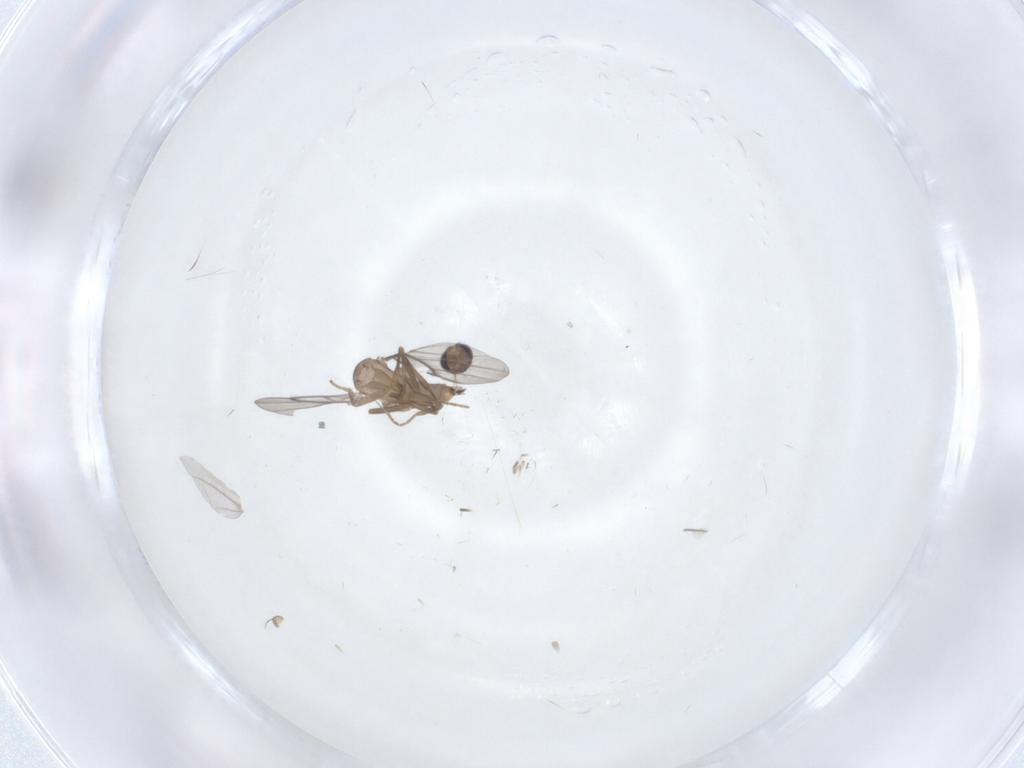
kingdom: Animalia
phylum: Arthropoda
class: Insecta
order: Diptera
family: Cecidomyiidae
